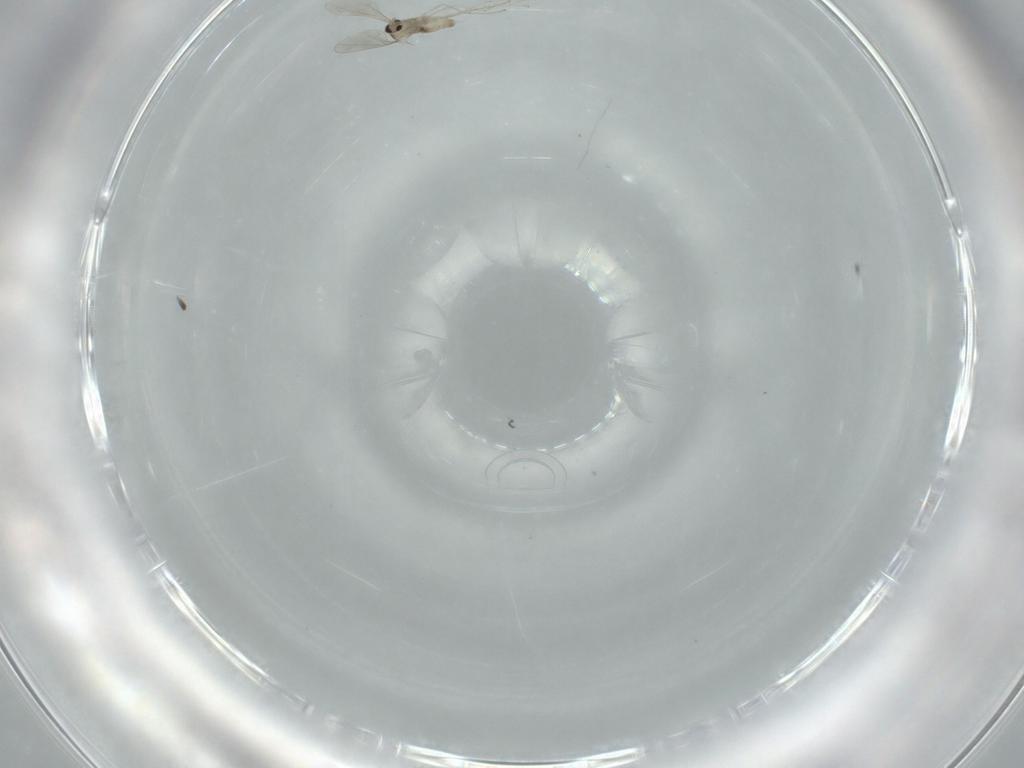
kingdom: Animalia
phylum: Arthropoda
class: Insecta
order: Diptera
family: Cecidomyiidae
